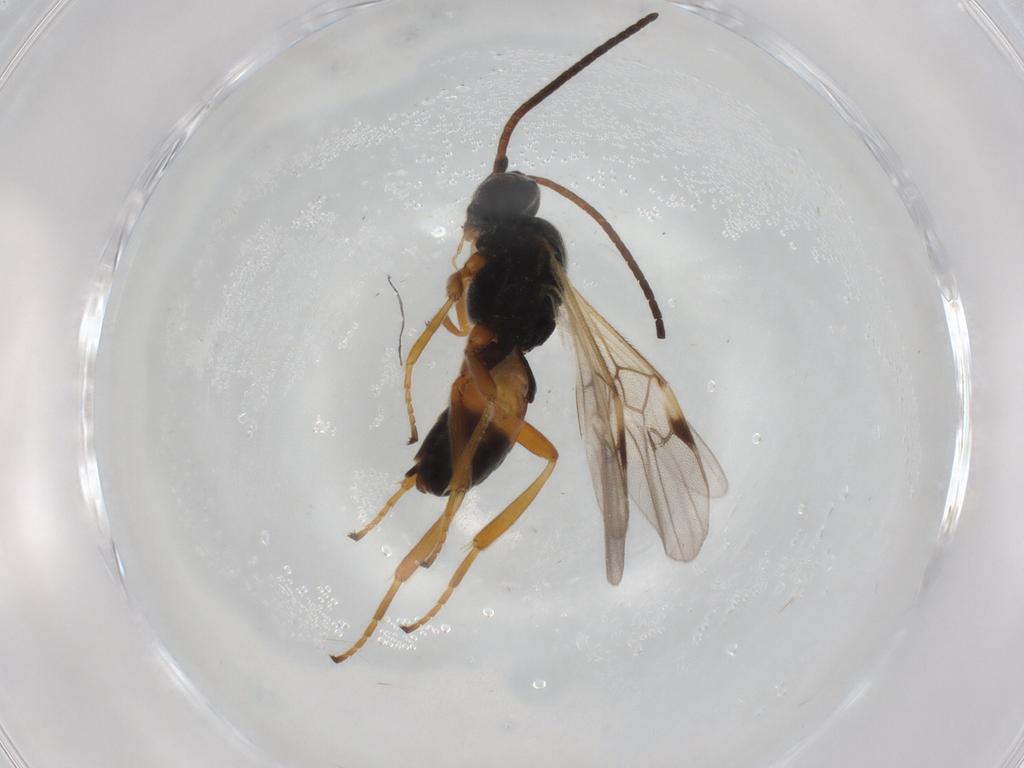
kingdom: Animalia
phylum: Arthropoda
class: Insecta
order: Hymenoptera
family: Braconidae
